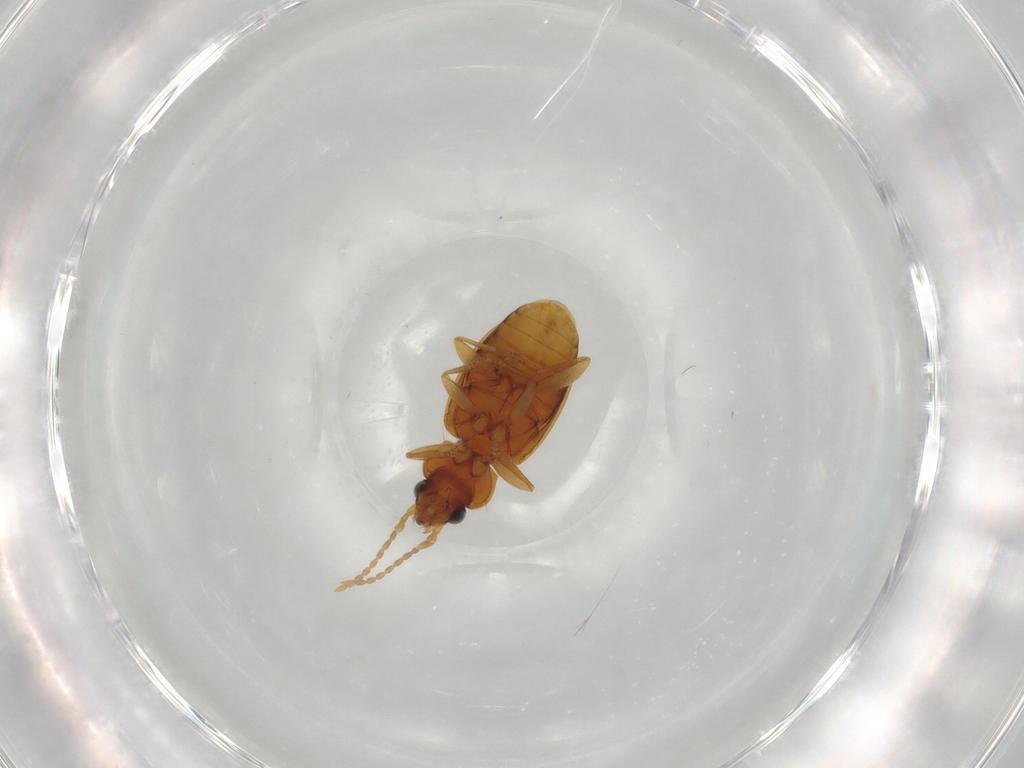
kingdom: Animalia
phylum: Arthropoda
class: Insecta
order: Coleoptera
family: Carabidae
